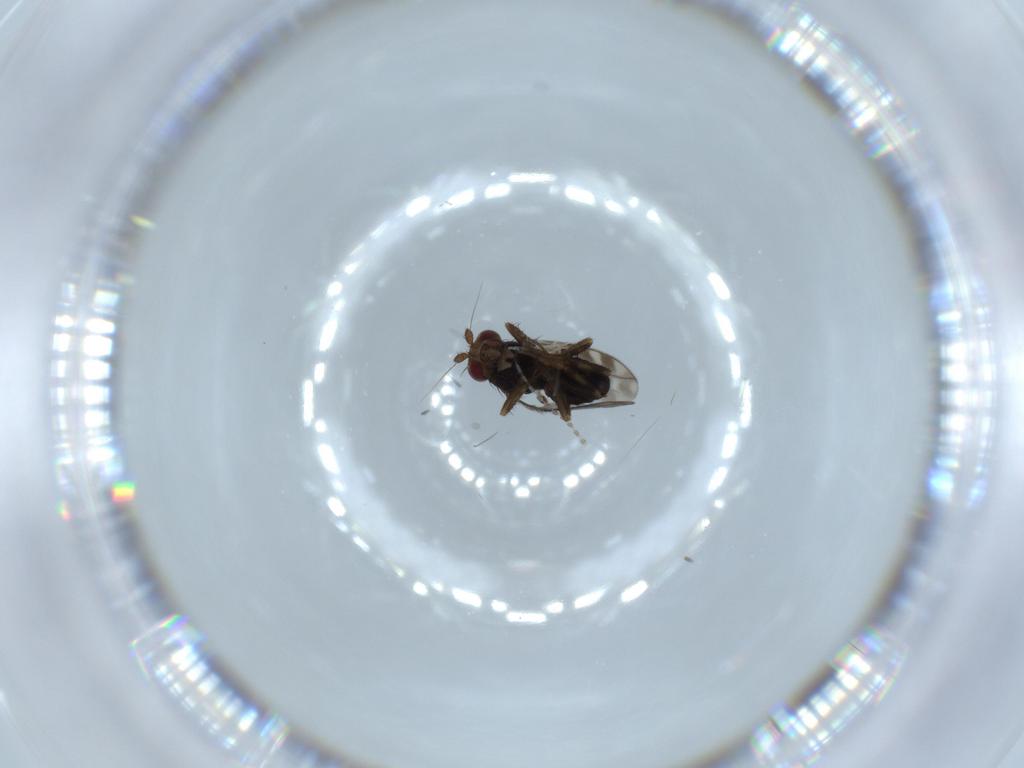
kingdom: Animalia
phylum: Arthropoda
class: Insecta
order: Diptera
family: Sphaeroceridae
